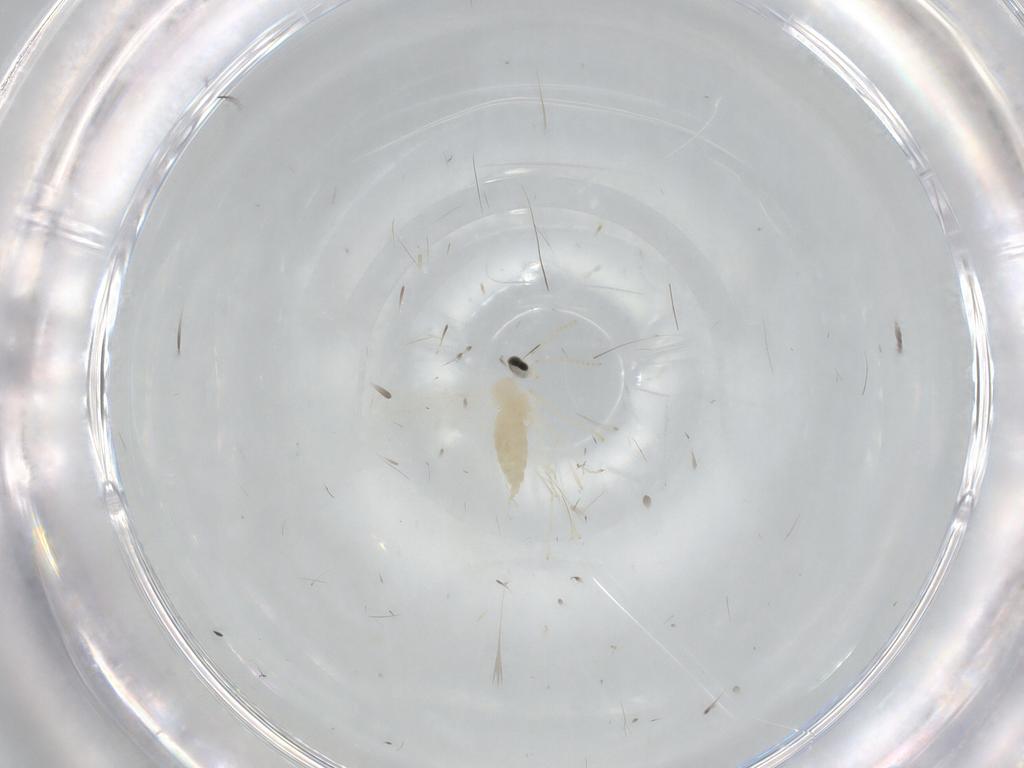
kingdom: Animalia
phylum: Arthropoda
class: Insecta
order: Diptera
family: Cecidomyiidae
